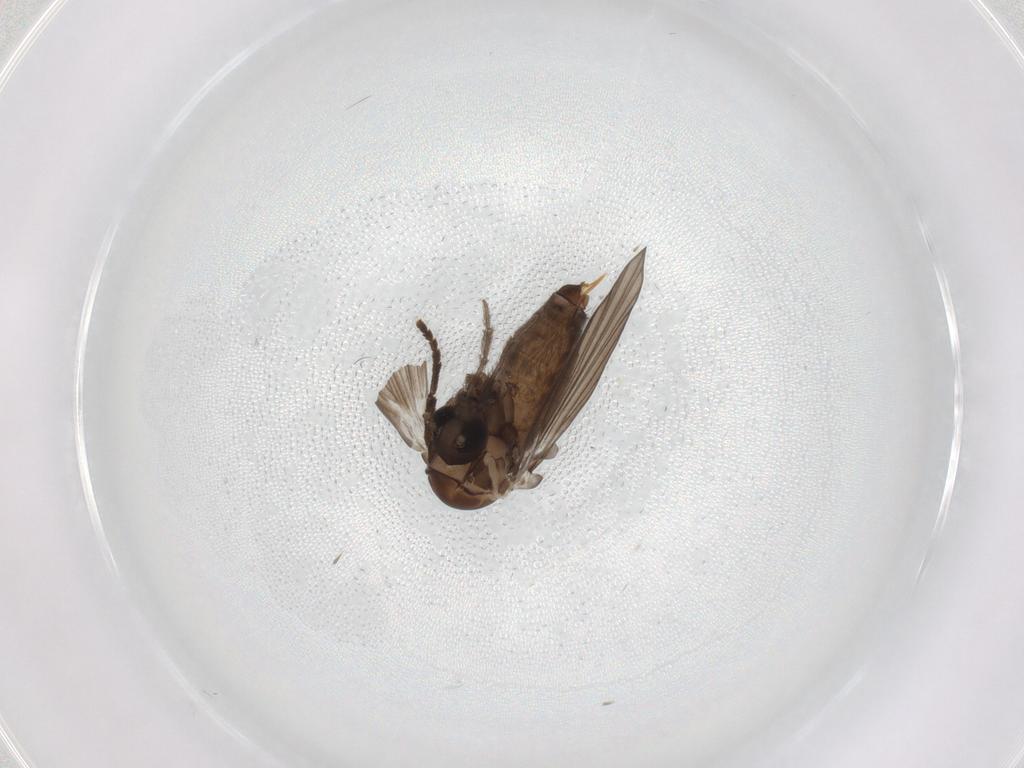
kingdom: Animalia
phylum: Arthropoda
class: Insecta
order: Diptera
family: Psychodidae
